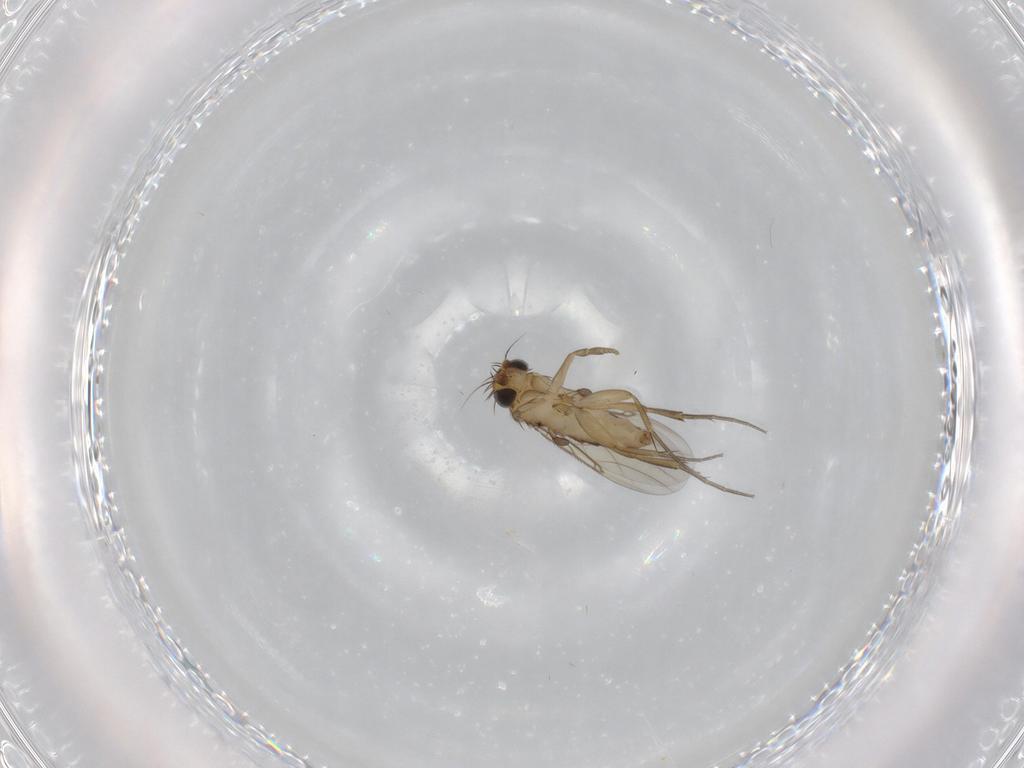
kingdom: Animalia
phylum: Arthropoda
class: Insecta
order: Diptera
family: Phoridae
